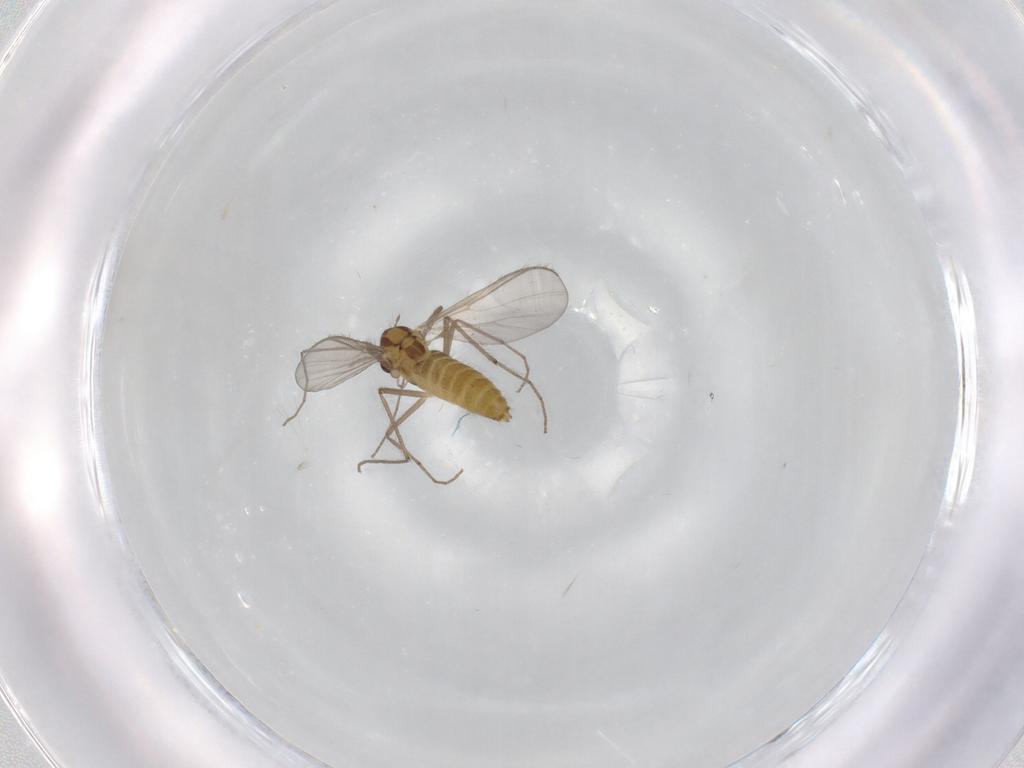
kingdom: Animalia
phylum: Arthropoda
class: Insecta
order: Diptera
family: Chironomidae
